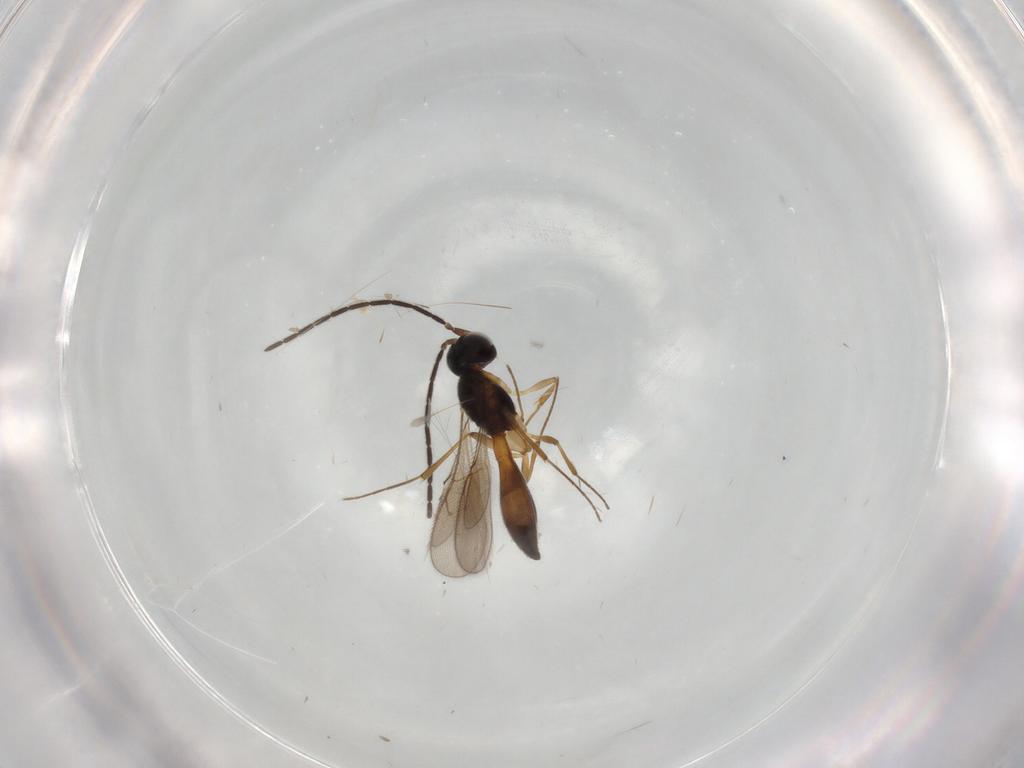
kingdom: Animalia
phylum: Arthropoda
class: Insecta
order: Hymenoptera
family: Scelionidae
